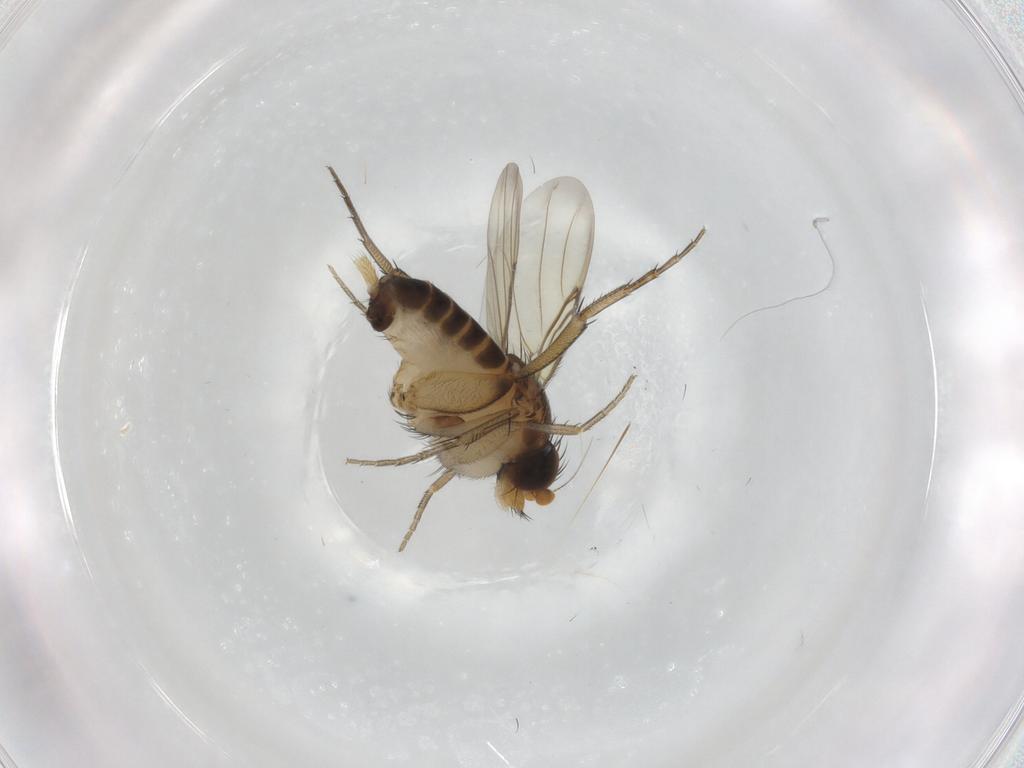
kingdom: Animalia
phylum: Arthropoda
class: Insecta
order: Diptera
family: Phoridae
